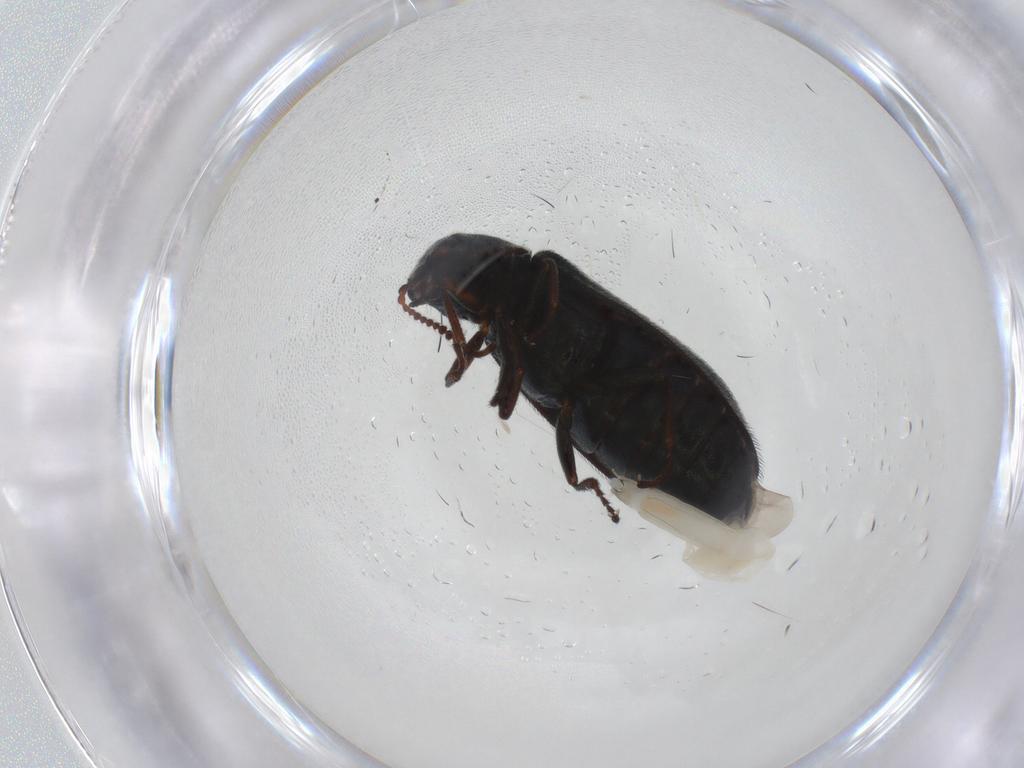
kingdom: Animalia
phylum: Arthropoda
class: Insecta
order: Coleoptera
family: Melyridae
